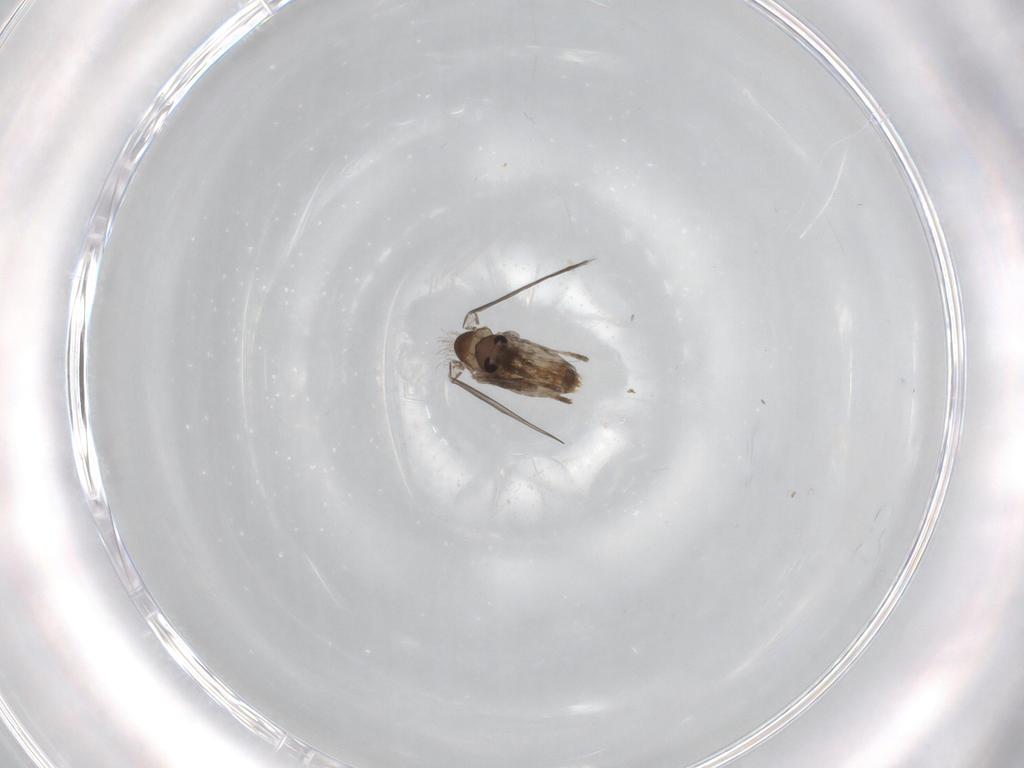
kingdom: Animalia
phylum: Arthropoda
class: Insecta
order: Diptera
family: Psychodidae
